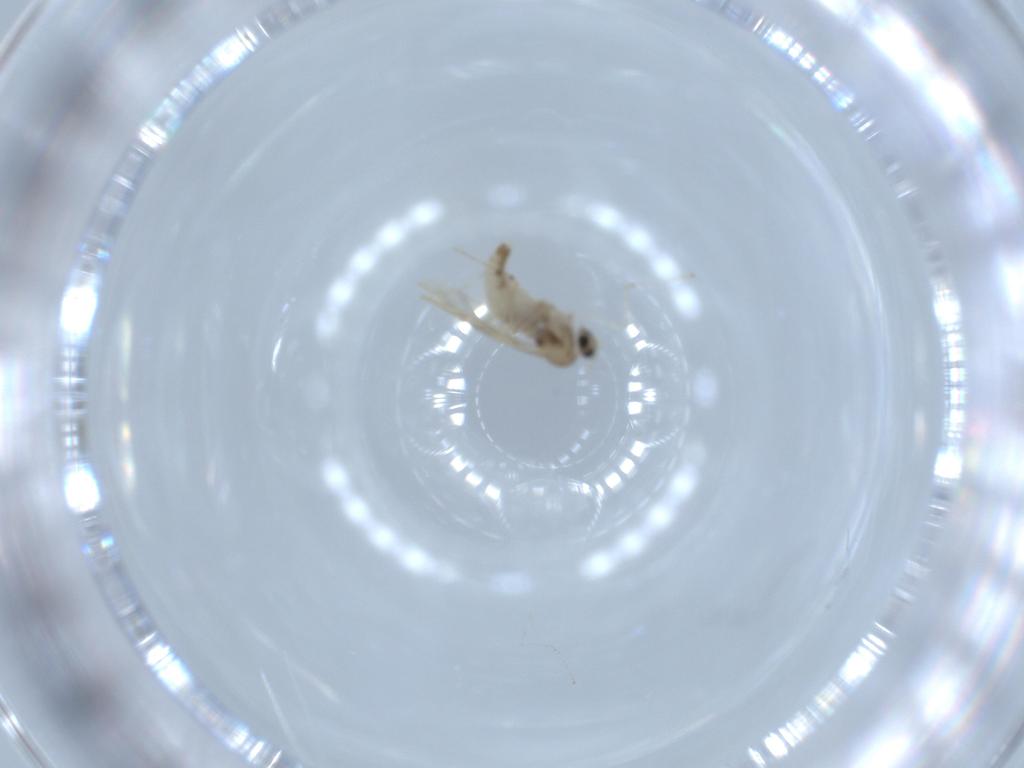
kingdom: Animalia
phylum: Arthropoda
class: Insecta
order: Diptera
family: Cecidomyiidae
